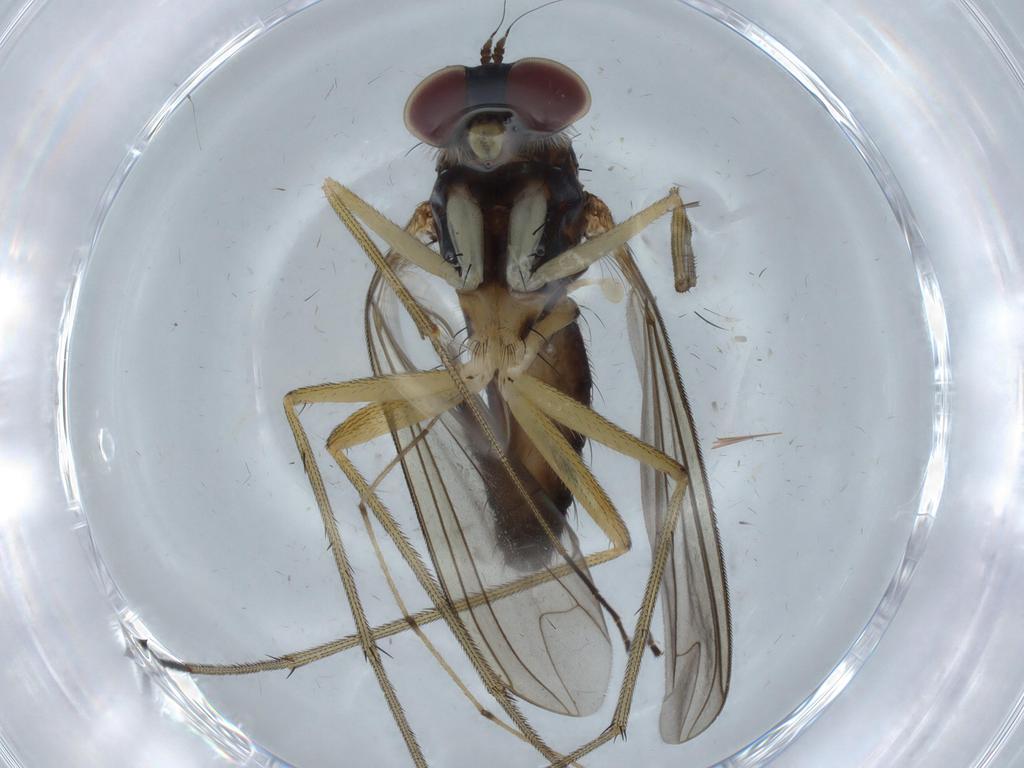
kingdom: Animalia
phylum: Arthropoda
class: Insecta
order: Diptera
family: Dolichopodidae
